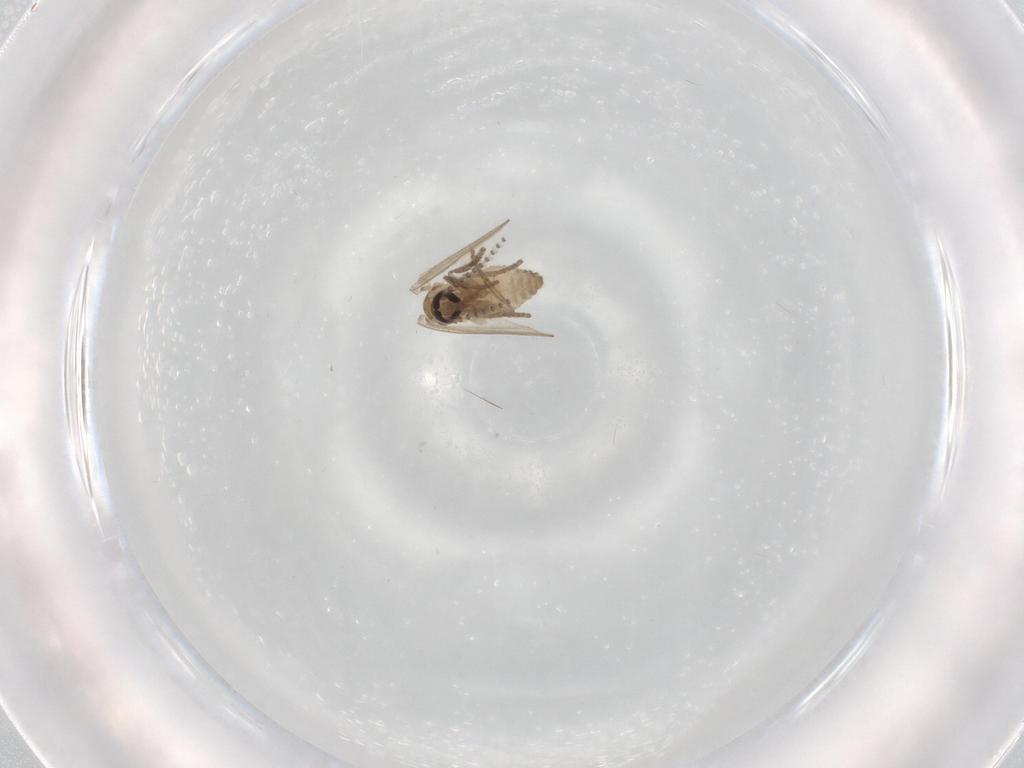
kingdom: Animalia
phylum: Arthropoda
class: Insecta
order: Diptera
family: Psychodidae
